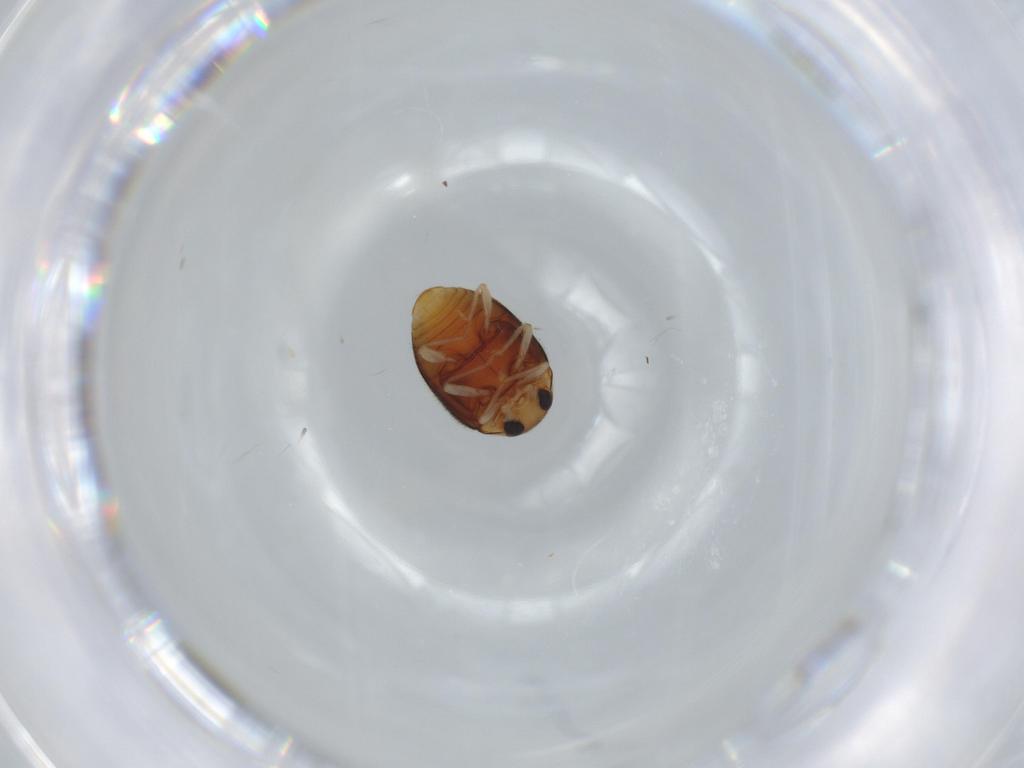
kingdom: Animalia
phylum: Arthropoda
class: Insecta
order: Coleoptera
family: Coccinellidae
